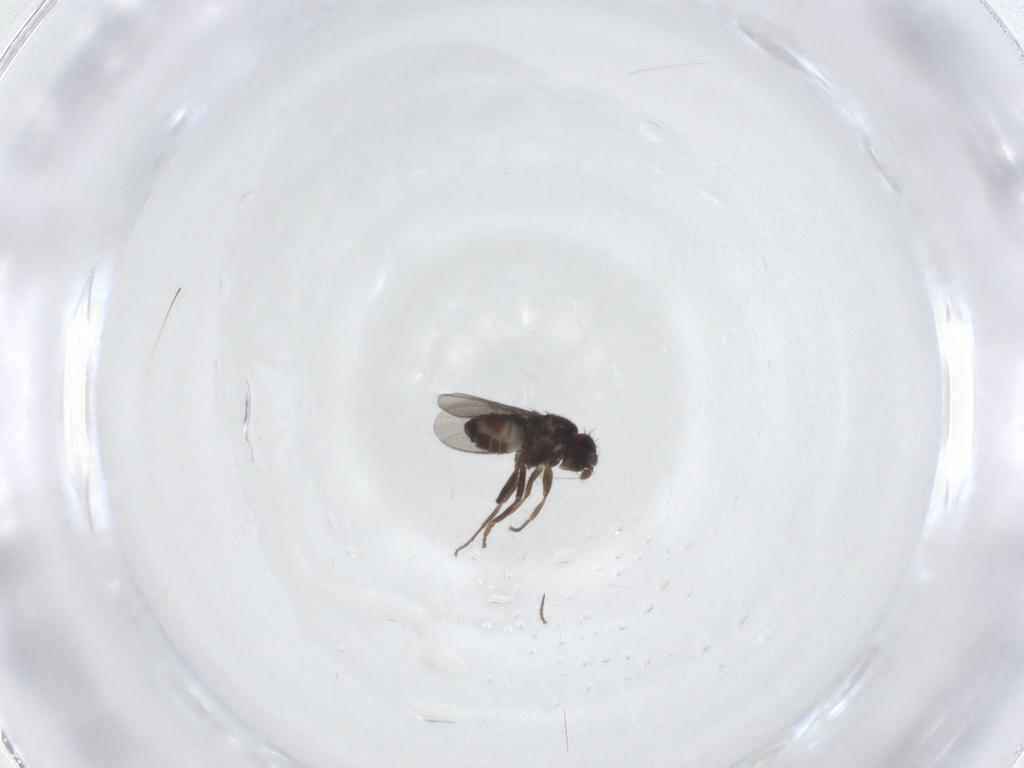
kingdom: Animalia
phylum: Arthropoda
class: Insecta
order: Diptera
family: Sphaeroceridae
